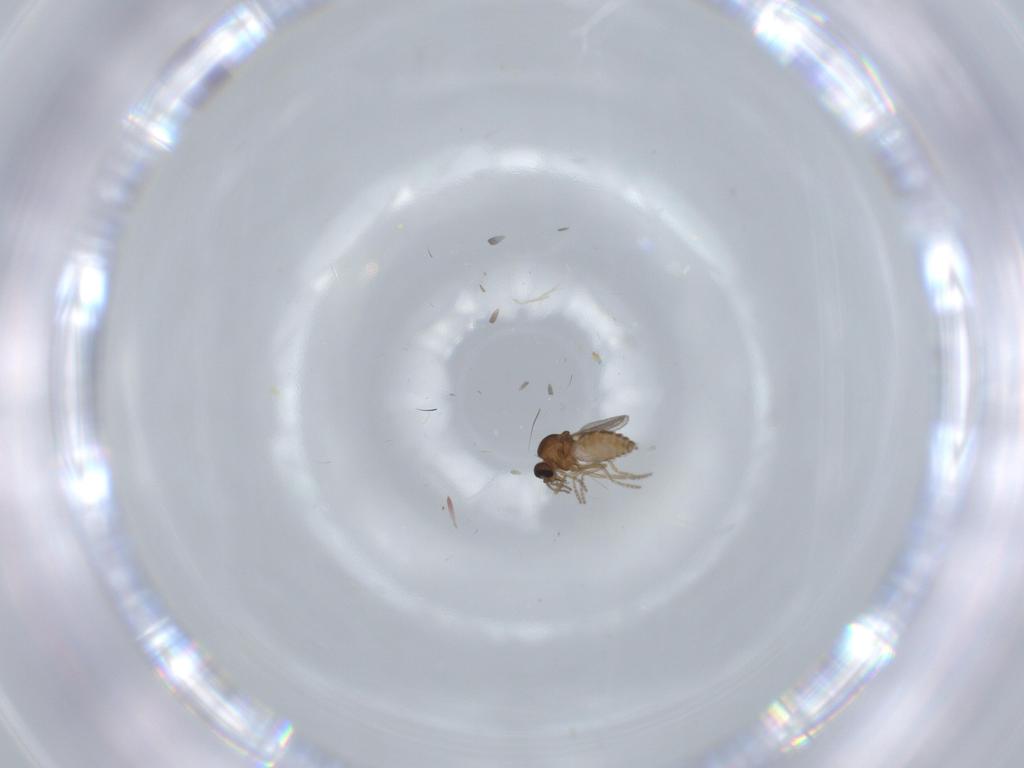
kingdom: Animalia
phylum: Arthropoda
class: Insecta
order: Diptera
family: Ceratopogonidae
